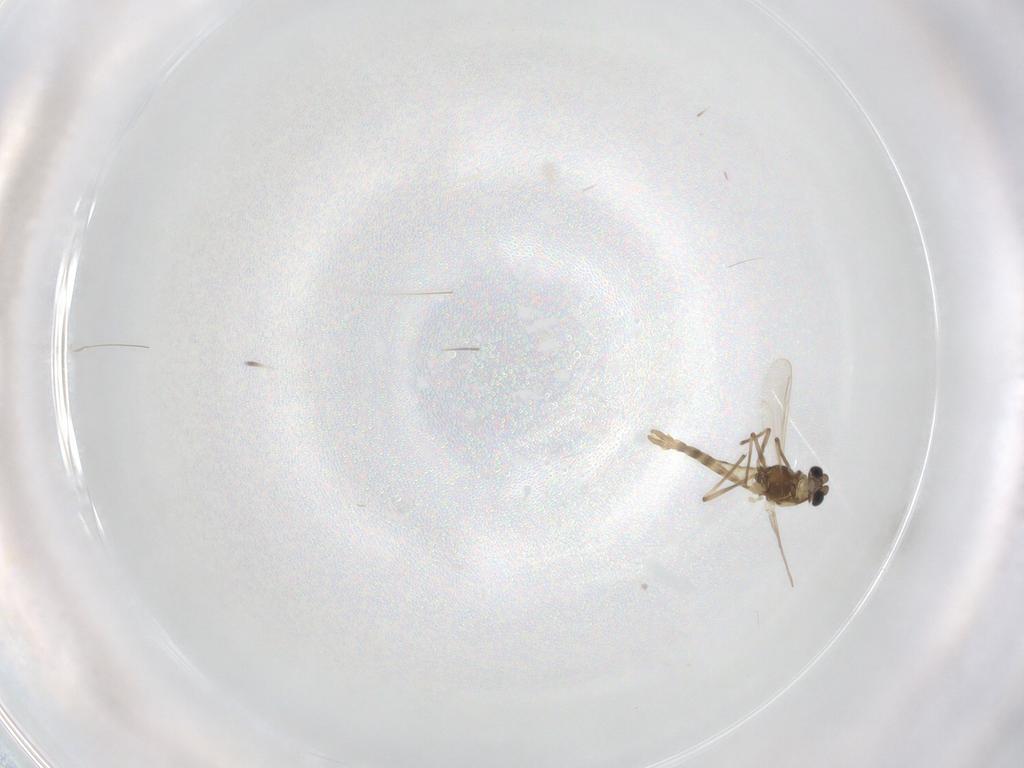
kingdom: Animalia
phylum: Arthropoda
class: Insecta
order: Diptera
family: Chironomidae
